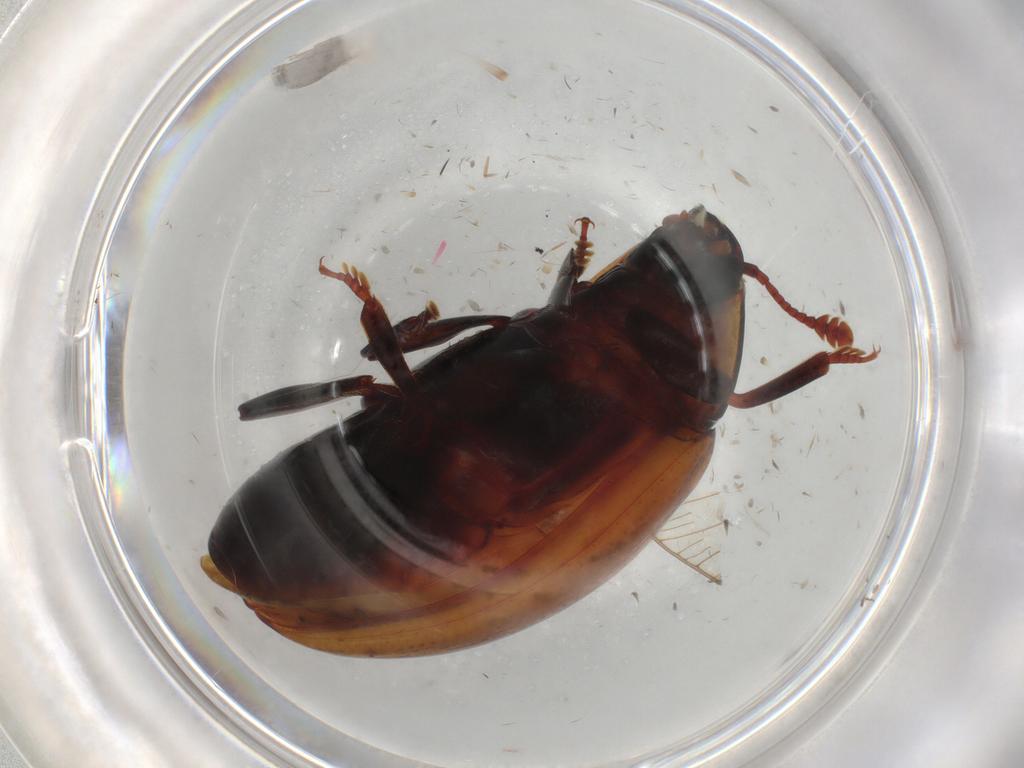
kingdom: Animalia
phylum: Arthropoda
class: Insecta
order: Coleoptera
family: Zopheridae
